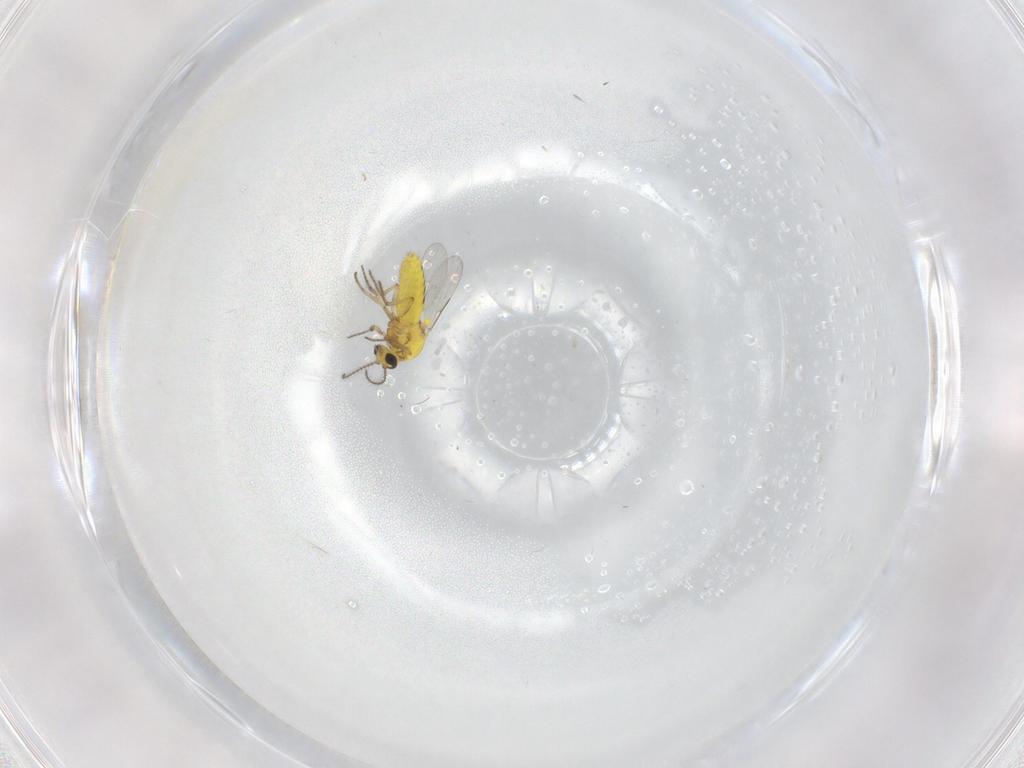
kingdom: Animalia
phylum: Arthropoda
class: Insecta
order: Diptera
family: Ceratopogonidae
